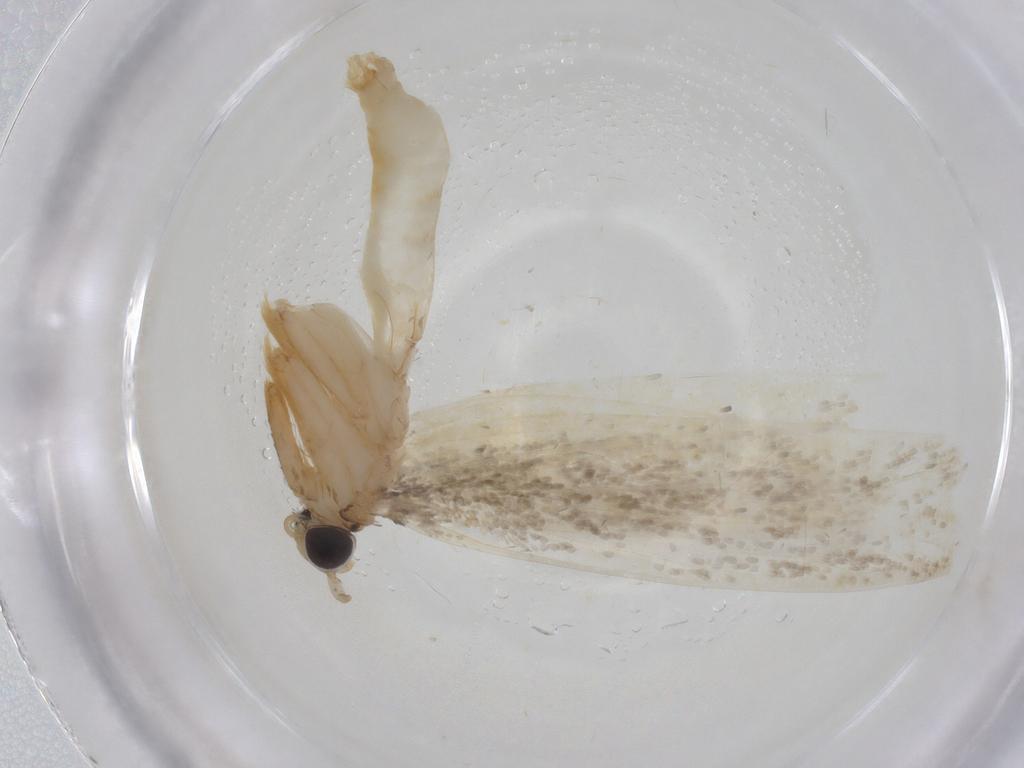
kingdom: Animalia
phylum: Arthropoda
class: Insecta
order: Lepidoptera
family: Tineidae
